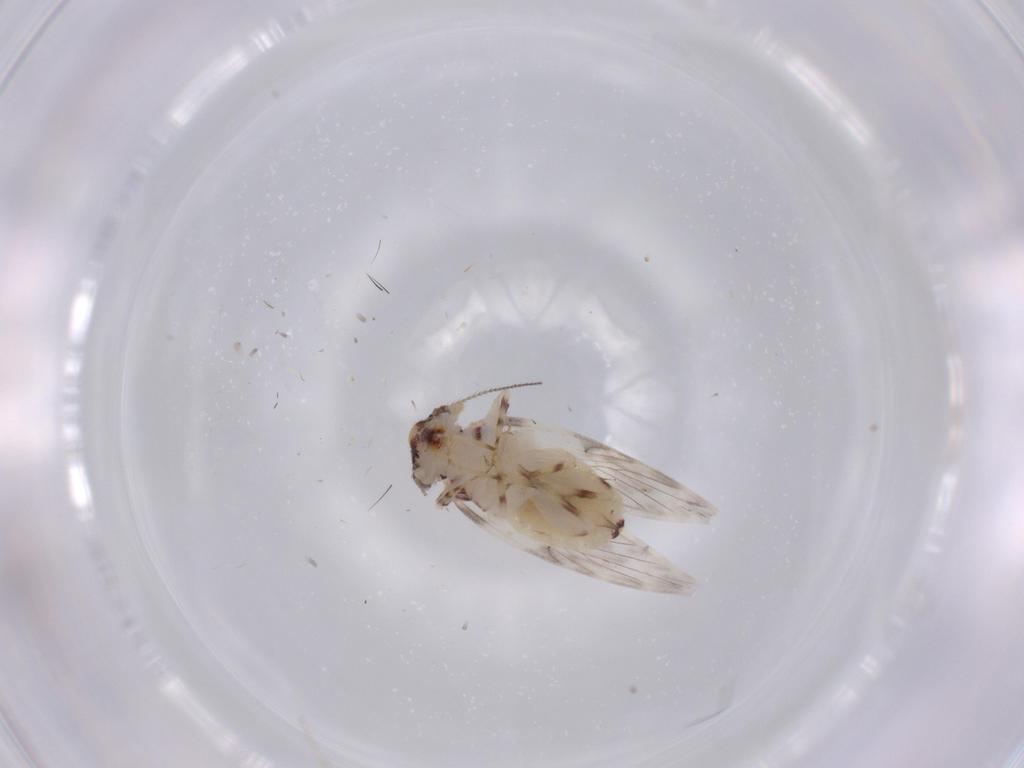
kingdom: Animalia
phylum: Arthropoda
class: Insecta
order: Psocodea
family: Lepidopsocidae
